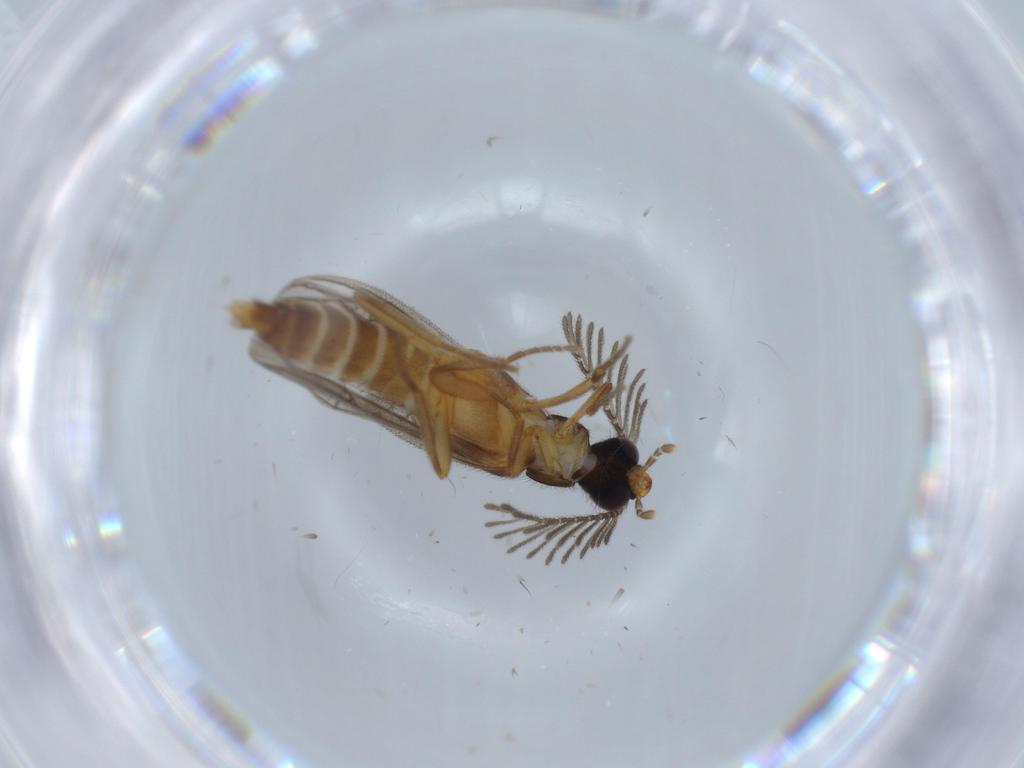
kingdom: Animalia
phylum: Arthropoda
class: Insecta
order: Coleoptera
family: Chrysomelidae
